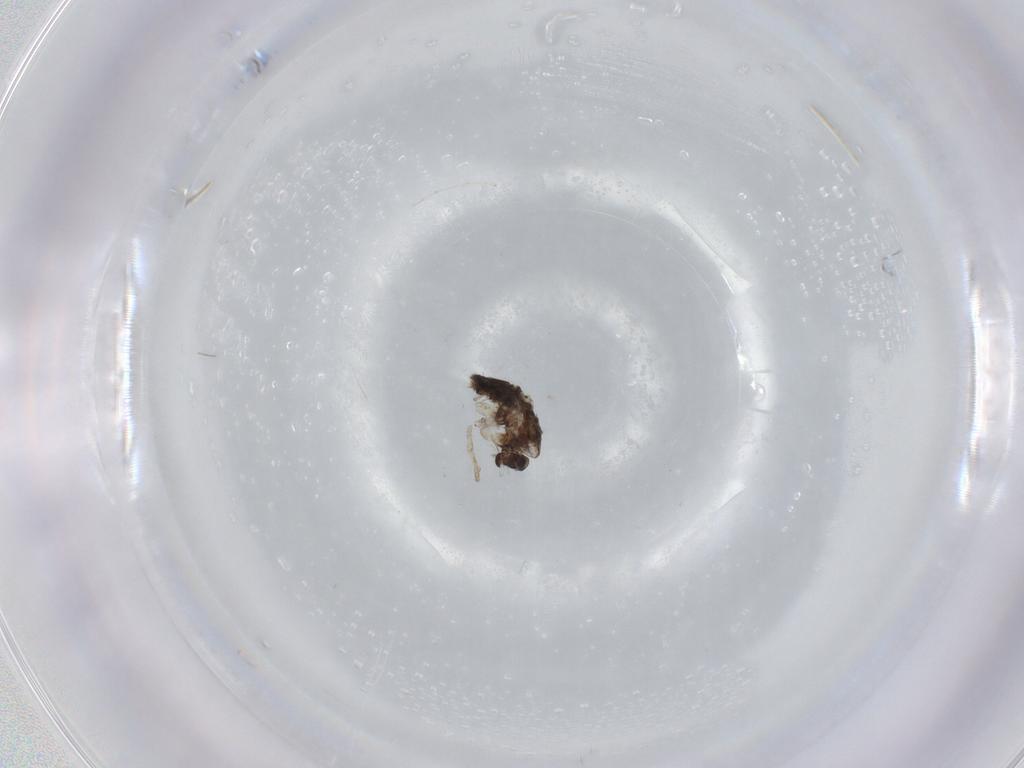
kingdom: Animalia
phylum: Arthropoda
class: Insecta
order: Diptera
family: Chironomidae
